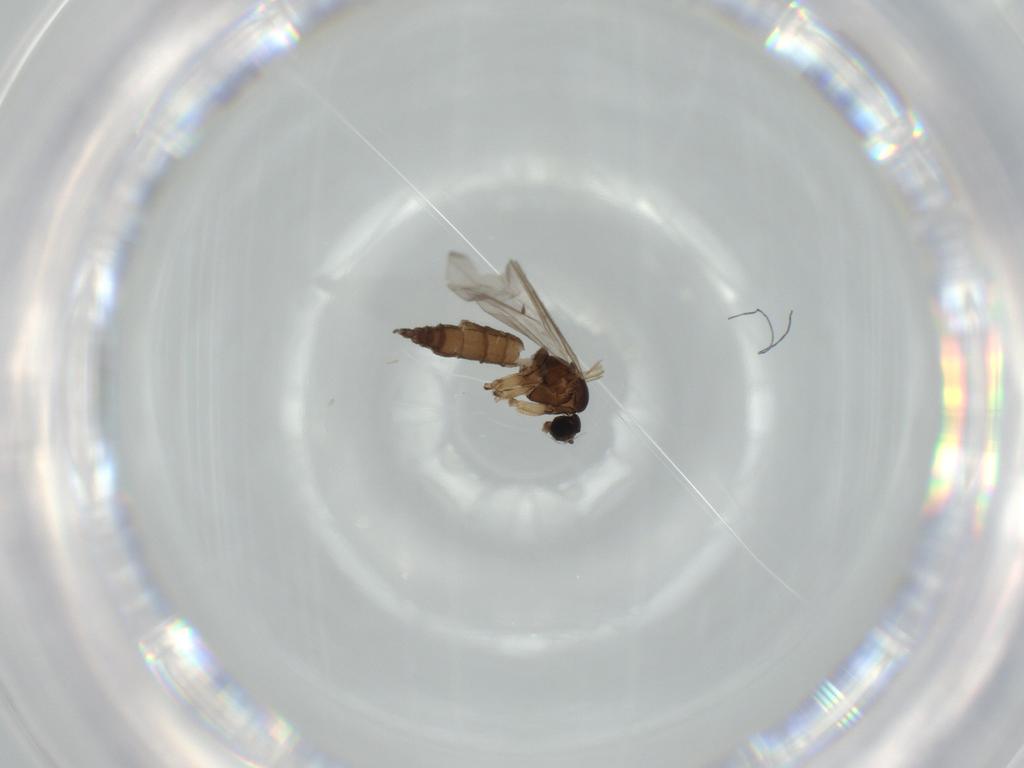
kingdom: Animalia
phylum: Arthropoda
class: Insecta
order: Diptera
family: Sciaridae
